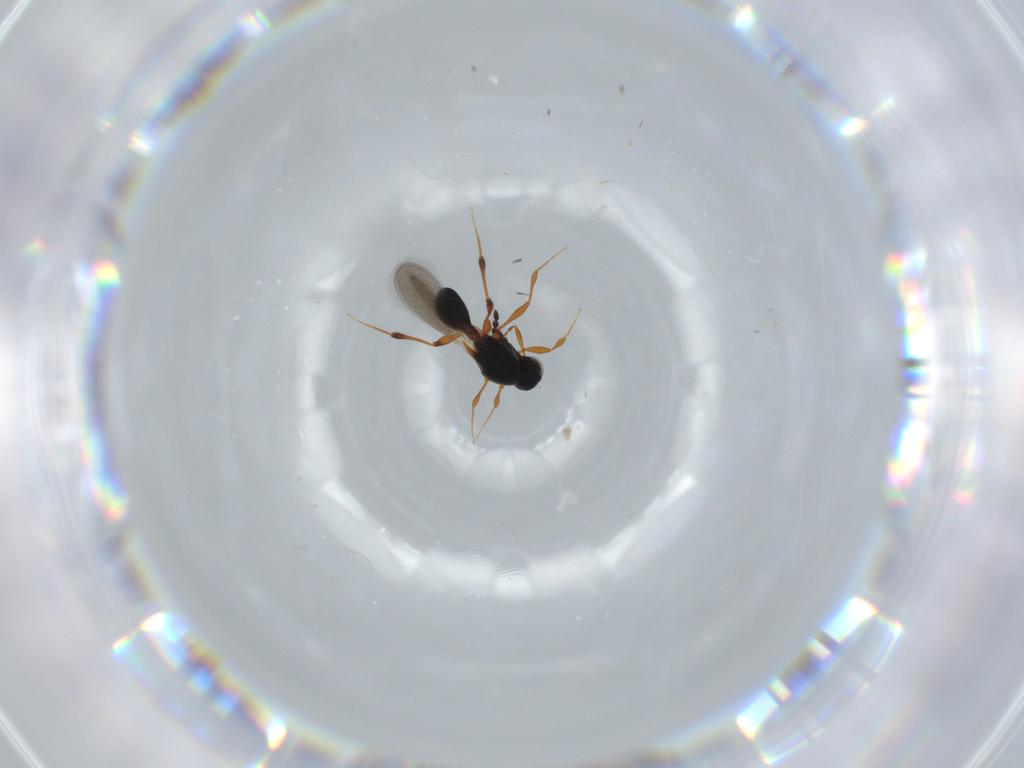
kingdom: Animalia
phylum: Arthropoda
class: Insecta
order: Hymenoptera
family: Platygastridae
